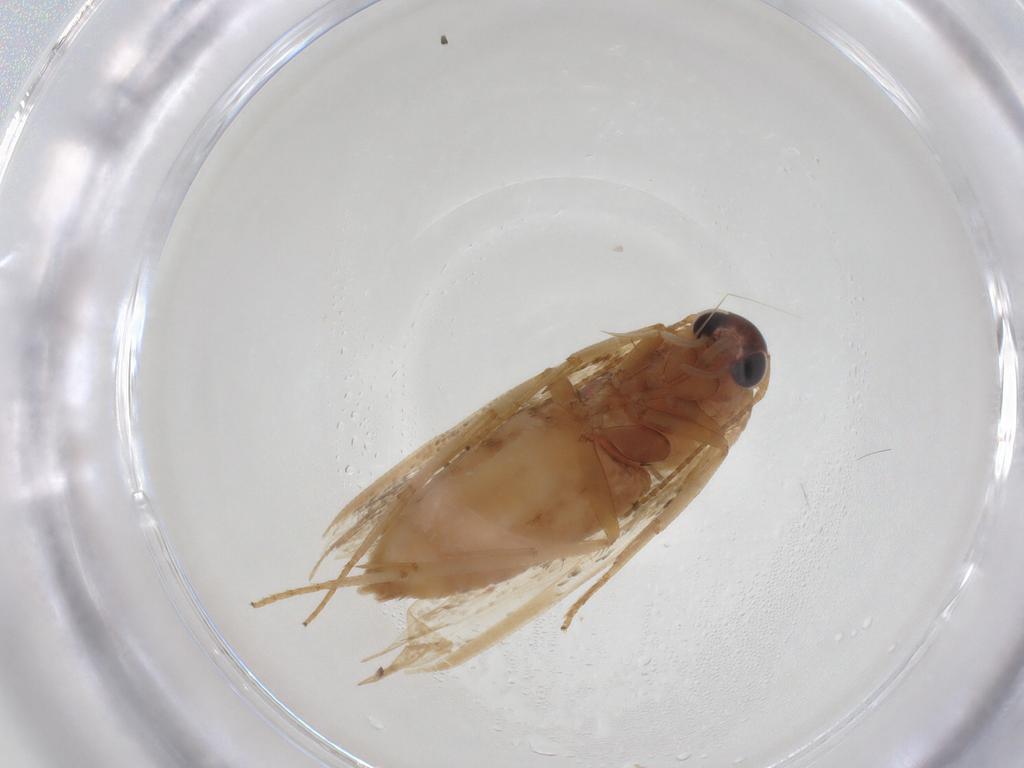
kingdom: Animalia
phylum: Arthropoda
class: Insecta
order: Lepidoptera
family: Blastobasidae
